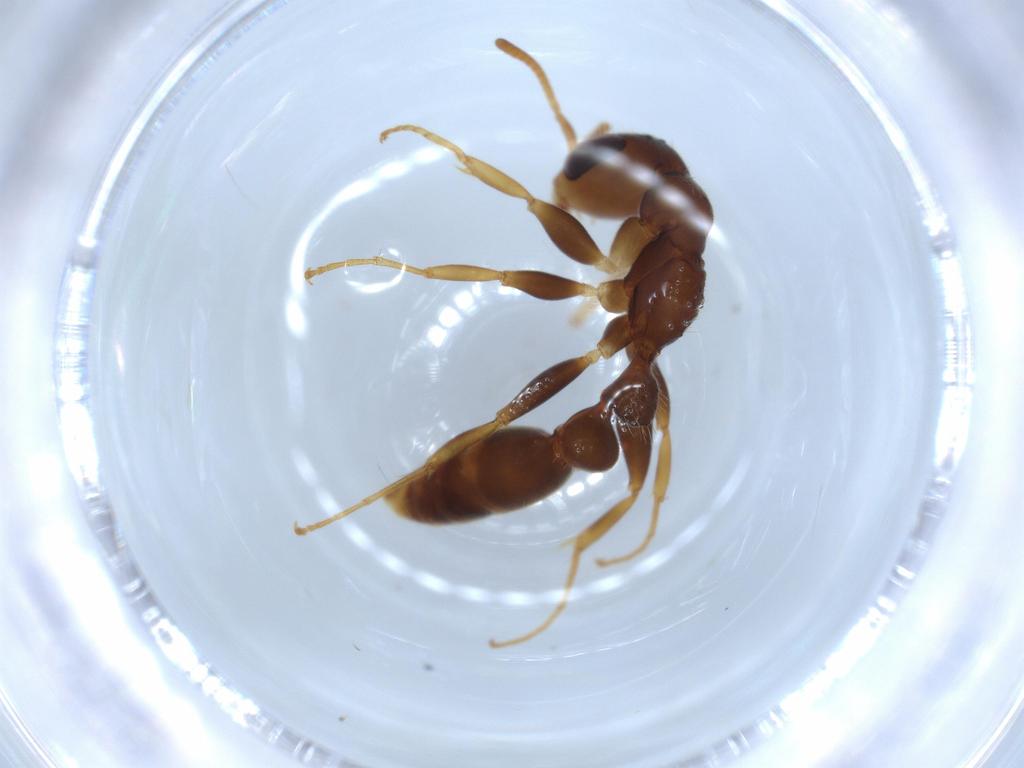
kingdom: Animalia
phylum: Arthropoda
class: Insecta
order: Hymenoptera
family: Formicidae
